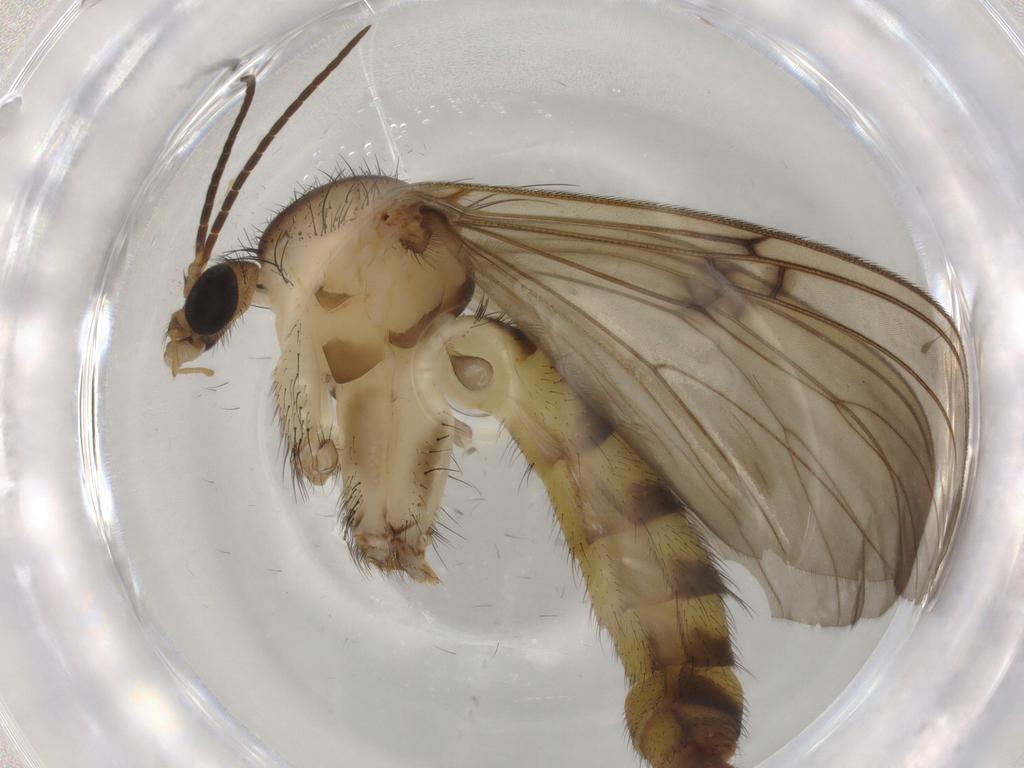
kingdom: Animalia
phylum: Arthropoda
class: Insecta
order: Diptera
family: Mycetophilidae
